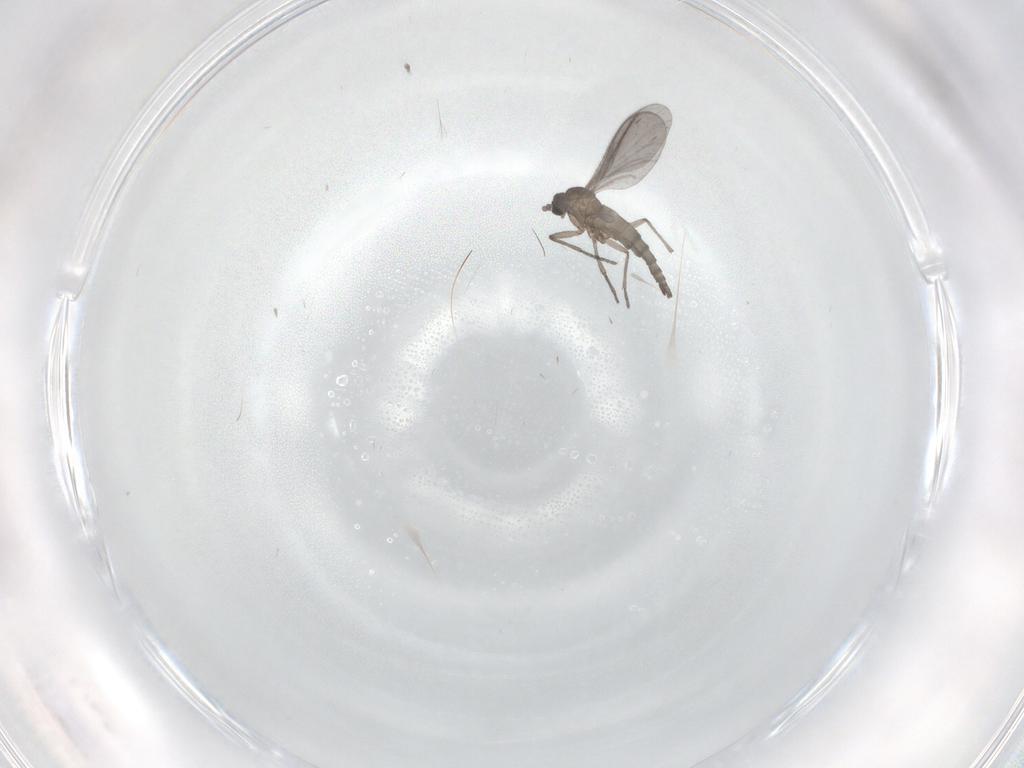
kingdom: Animalia
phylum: Arthropoda
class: Insecta
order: Diptera
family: Sciaridae
